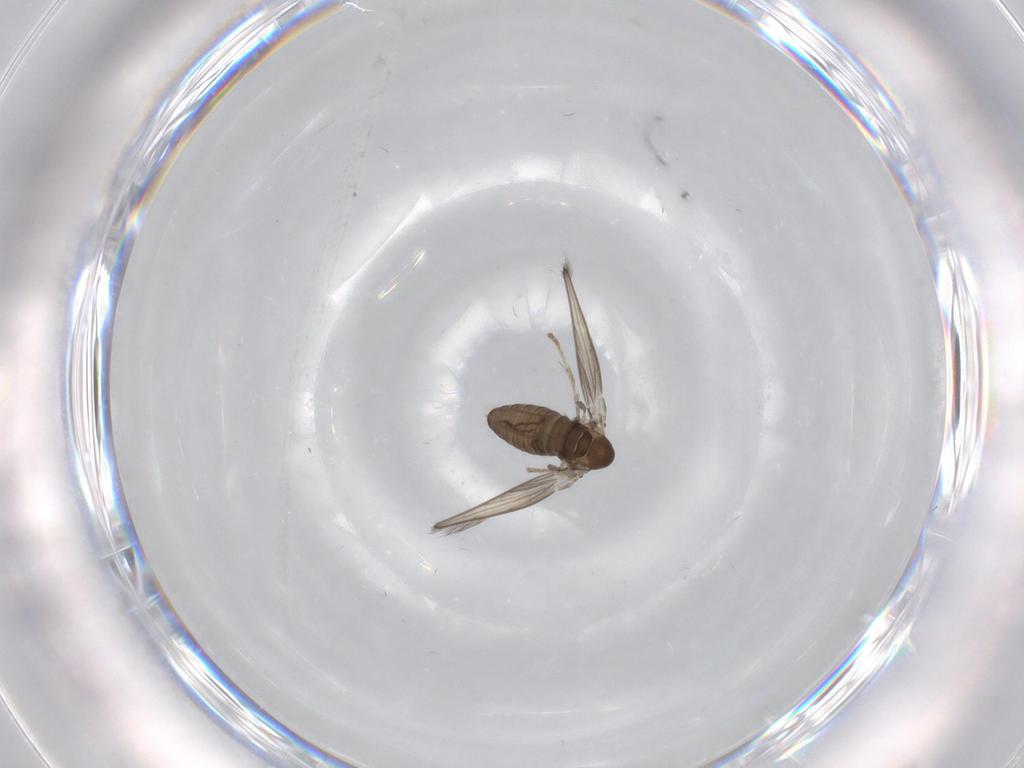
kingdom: Animalia
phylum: Arthropoda
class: Insecta
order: Diptera
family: Psychodidae
